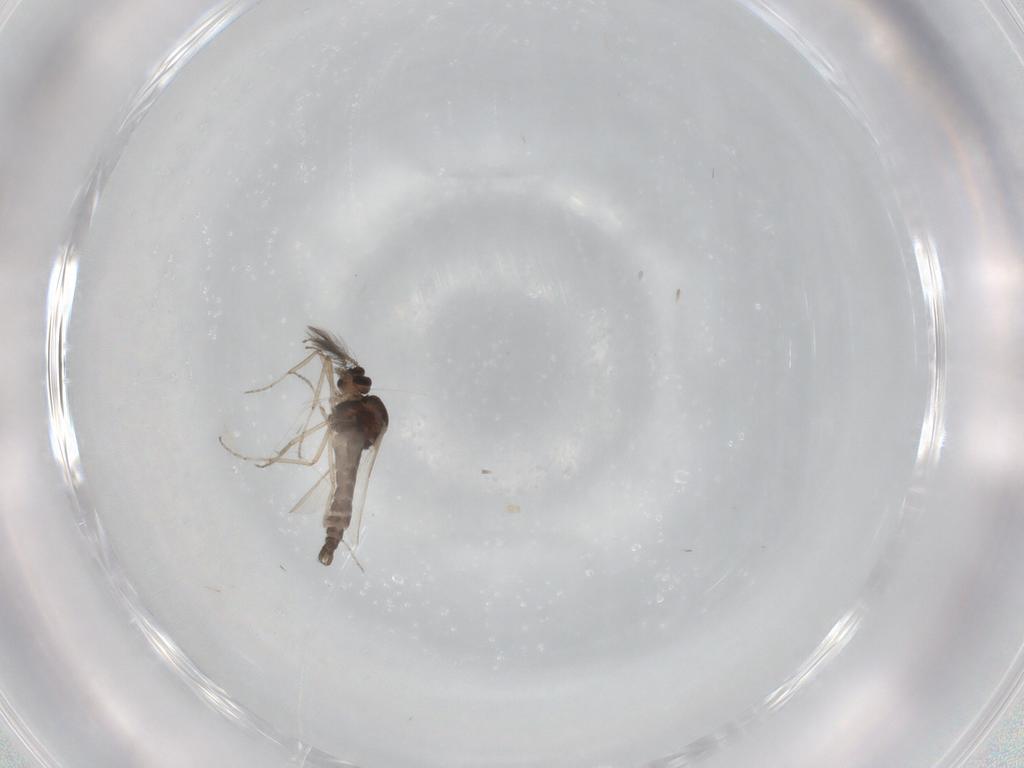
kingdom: Animalia
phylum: Arthropoda
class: Insecta
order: Diptera
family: Ceratopogonidae
